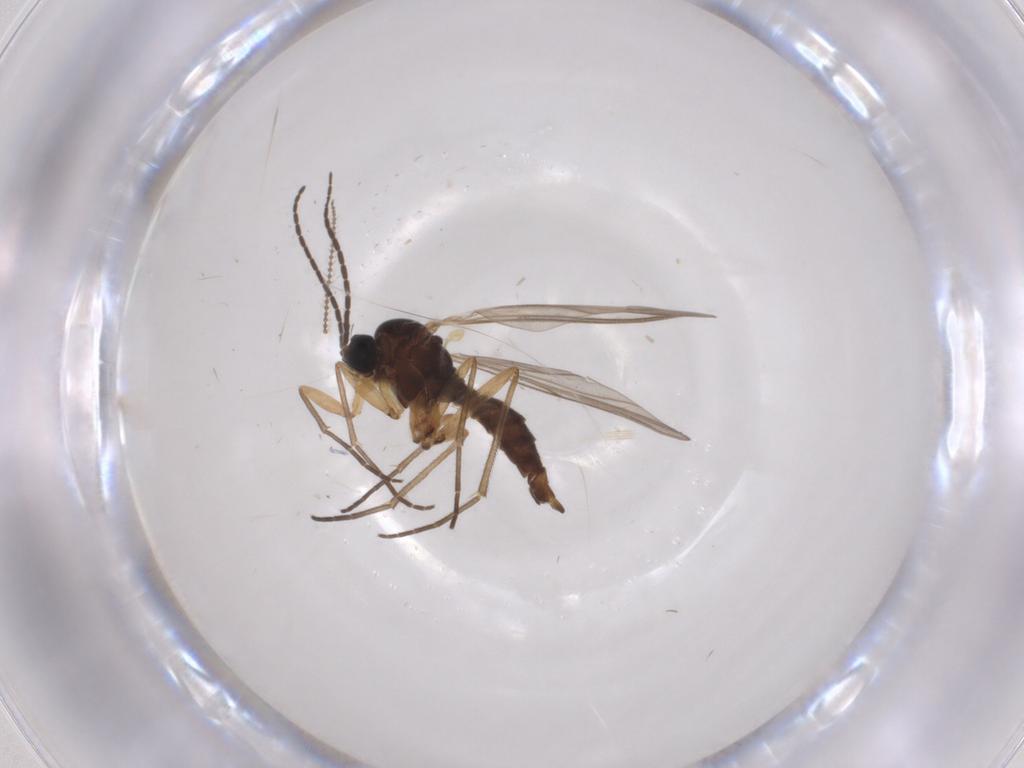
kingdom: Animalia
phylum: Arthropoda
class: Insecta
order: Diptera
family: Sciaridae
